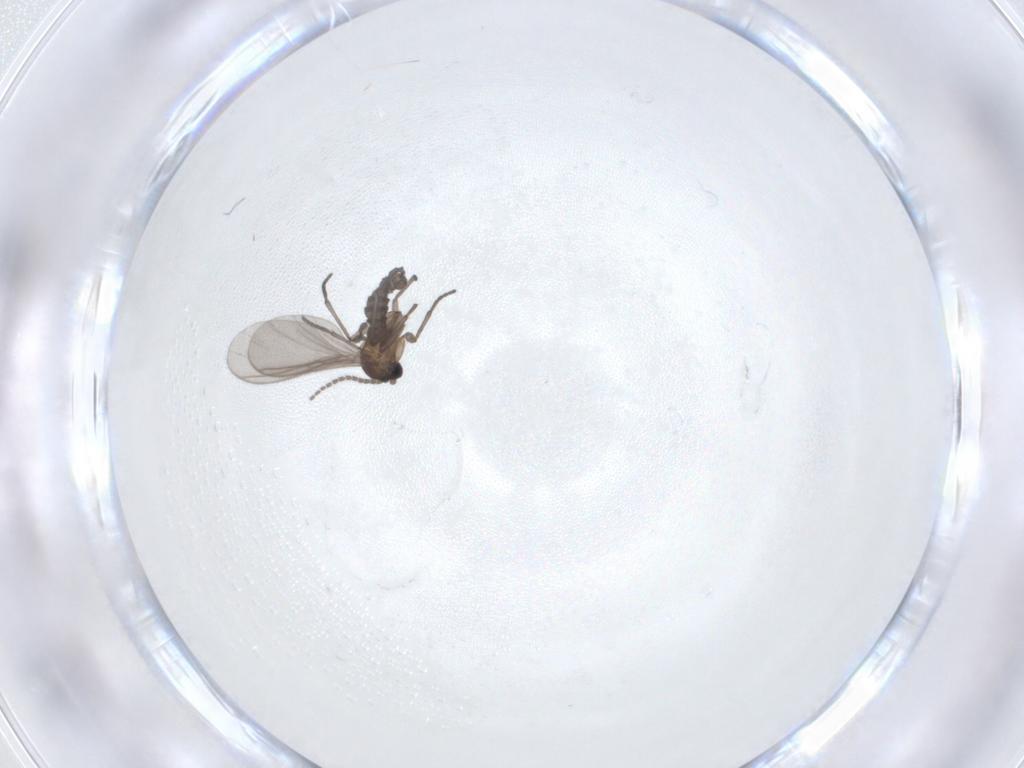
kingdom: Animalia
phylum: Arthropoda
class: Insecta
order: Diptera
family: Sciaridae
